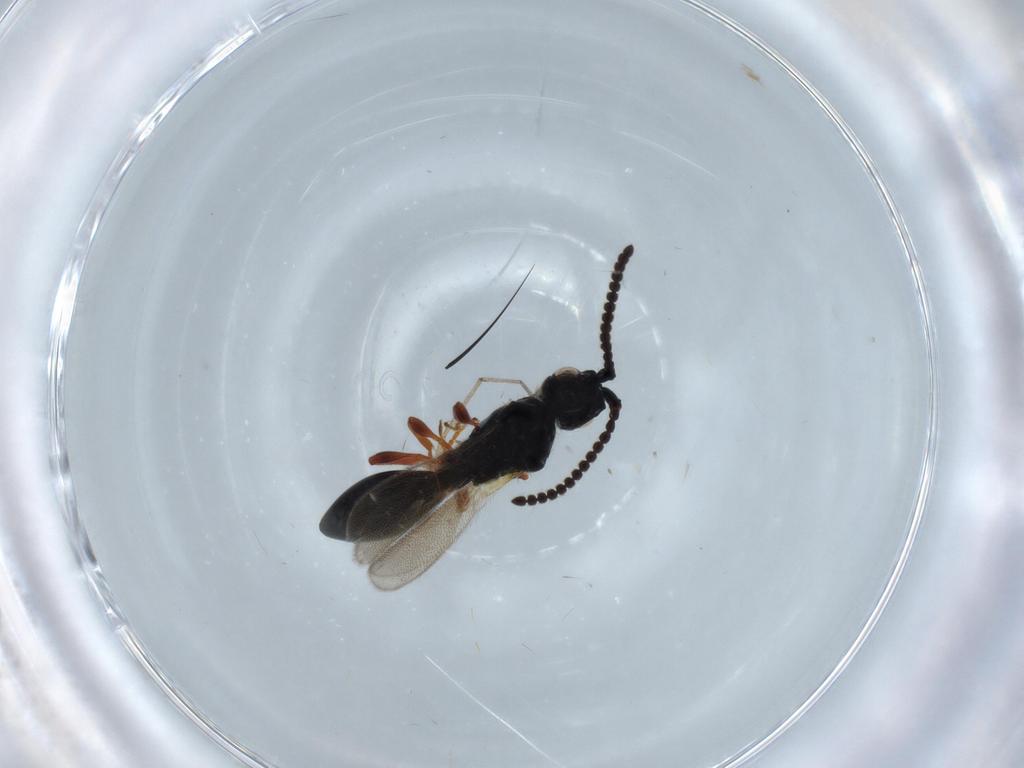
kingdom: Animalia
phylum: Arthropoda
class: Insecta
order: Hymenoptera
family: Diapriidae
